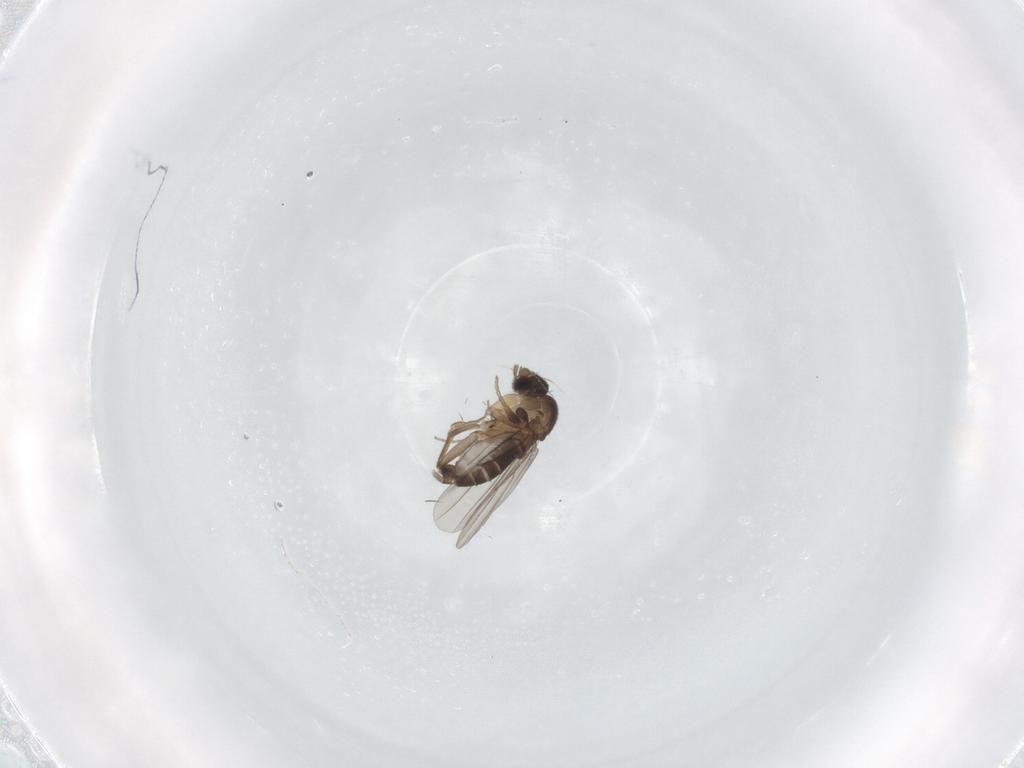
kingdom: Animalia
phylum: Arthropoda
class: Insecta
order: Diptera
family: Phoridae
